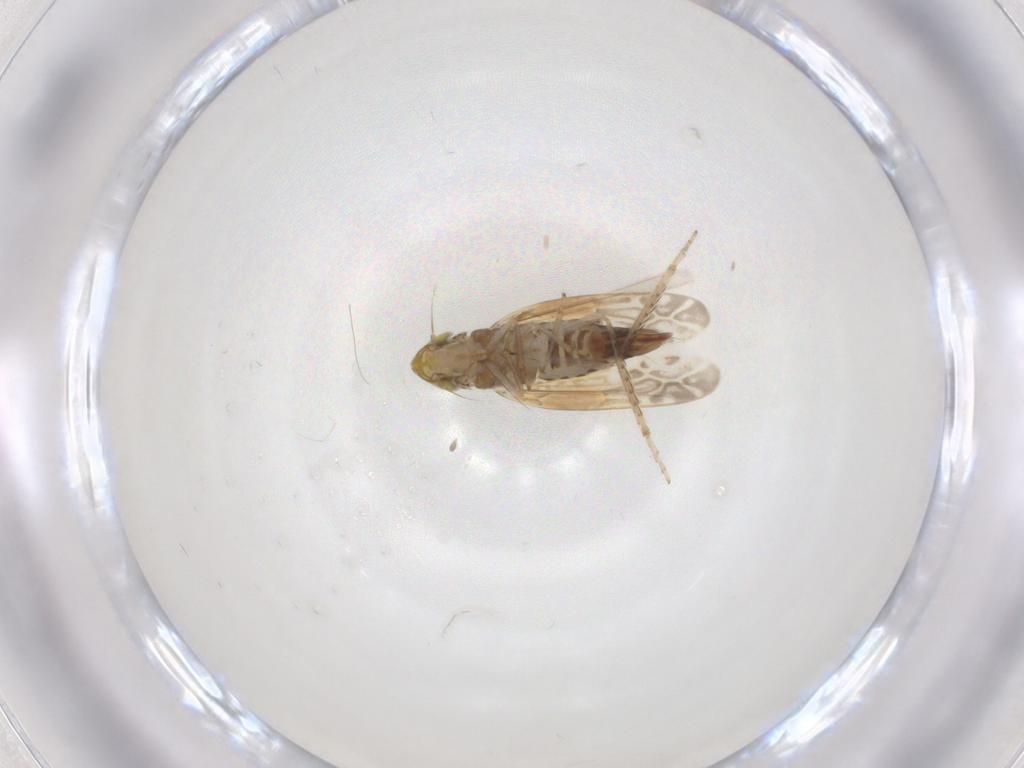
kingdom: Animalia
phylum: Arthropoda
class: Insecta
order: Hemiptera
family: Cicadellidae
